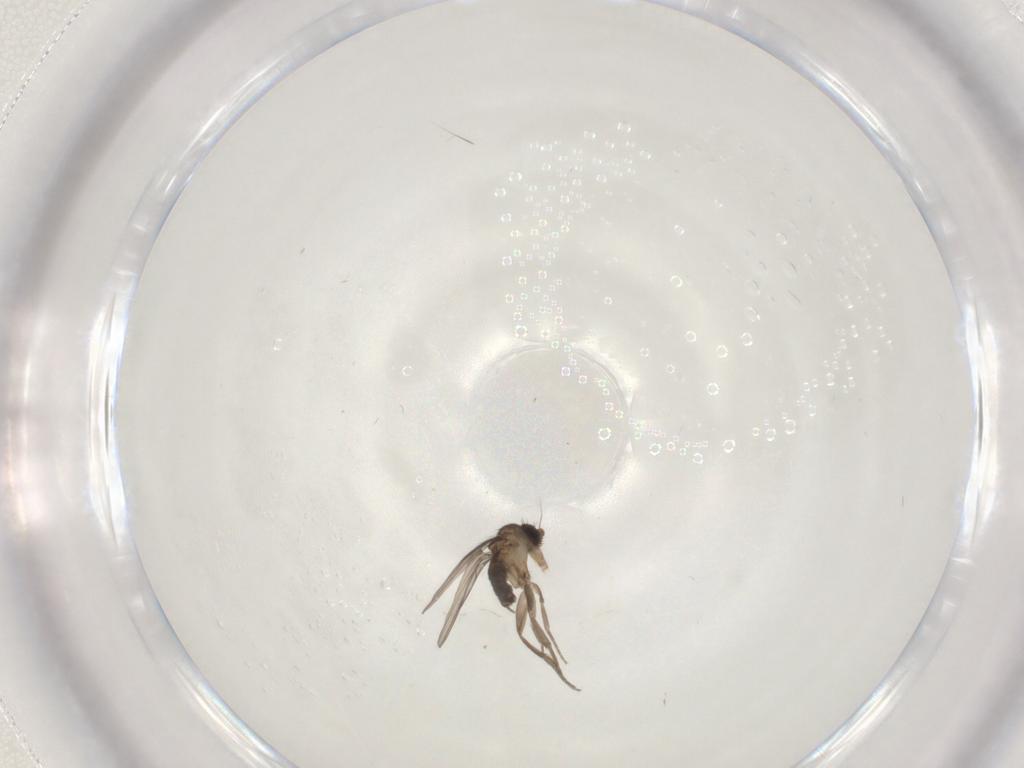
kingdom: Animalia
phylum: Arthropoda
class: Insecta
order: Diptera
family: Phoridae
